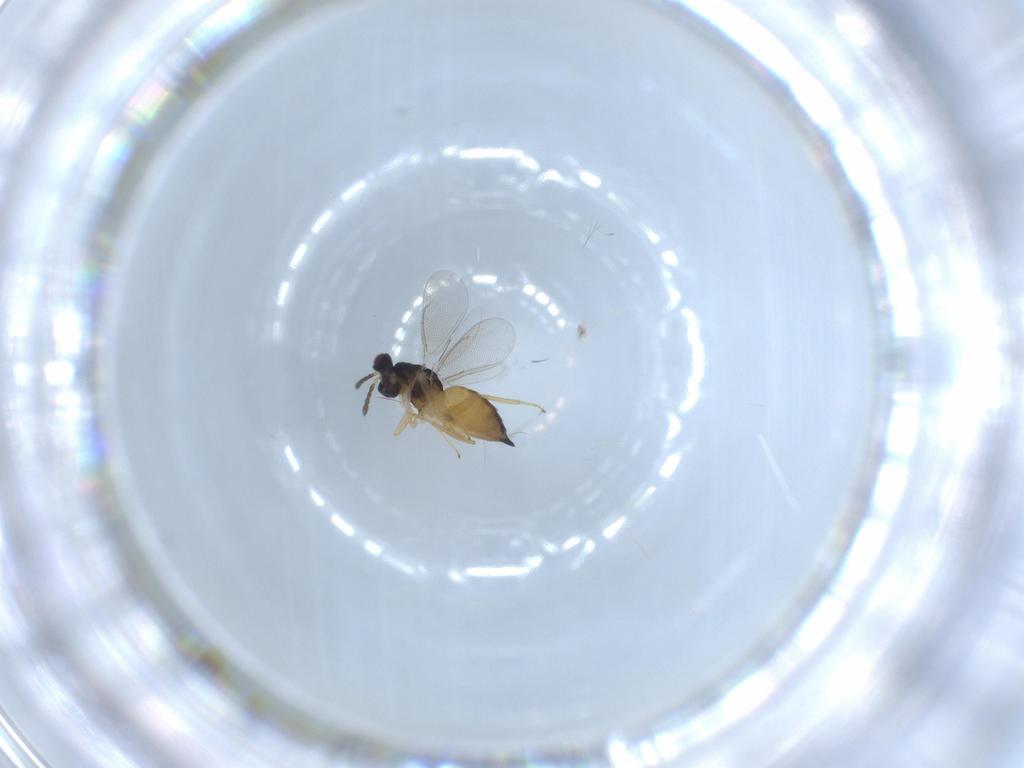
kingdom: Animalia
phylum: Arthropoda
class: Insecta
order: Hymenoptera
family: Eulophidae
